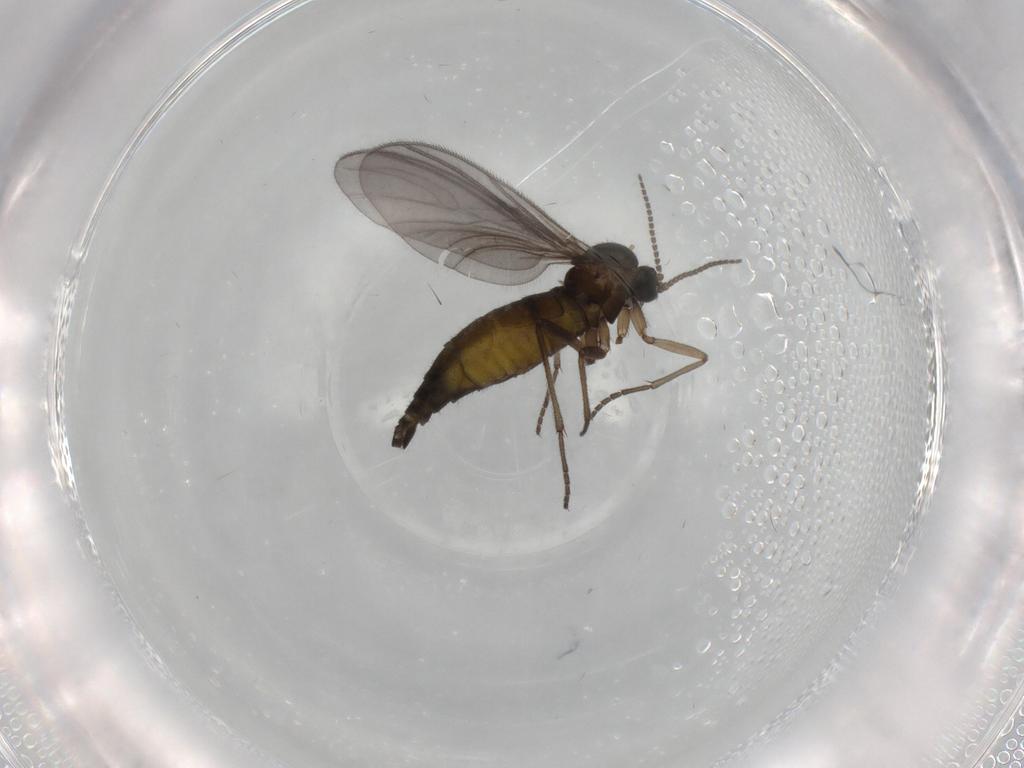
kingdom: Animalia
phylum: Arthropoda
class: Insecta
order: Diptera
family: Sciaridae
